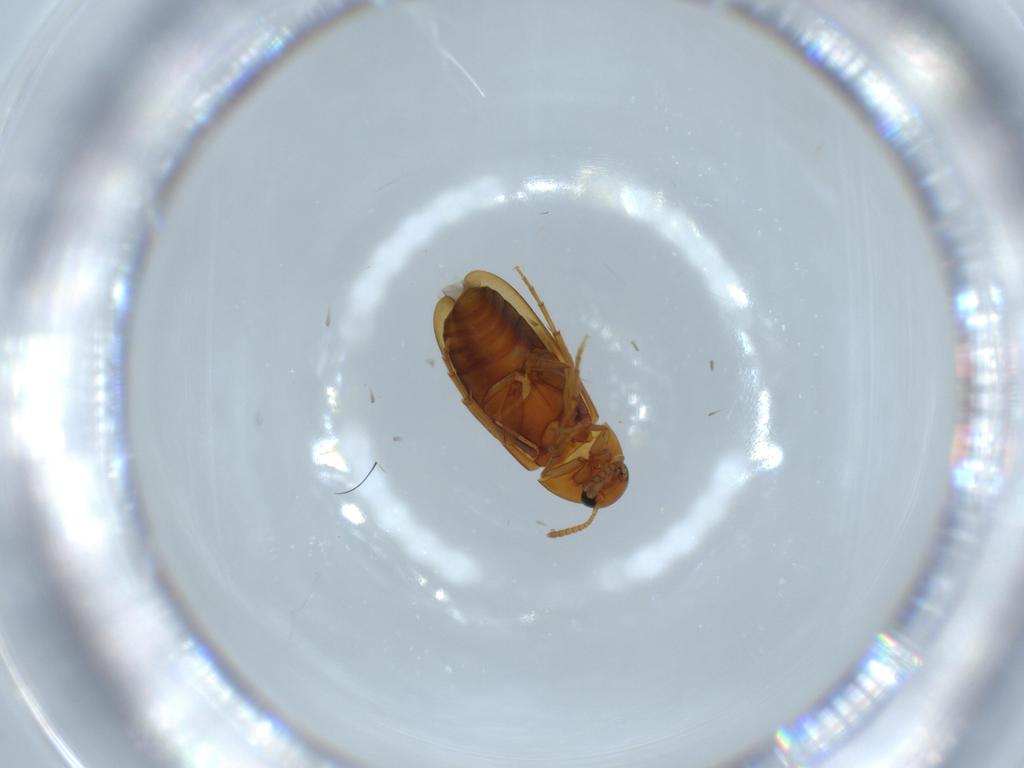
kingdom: Animalia
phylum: Arthropoda
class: Insecta
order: Coleoptera
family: Scraptiidae
